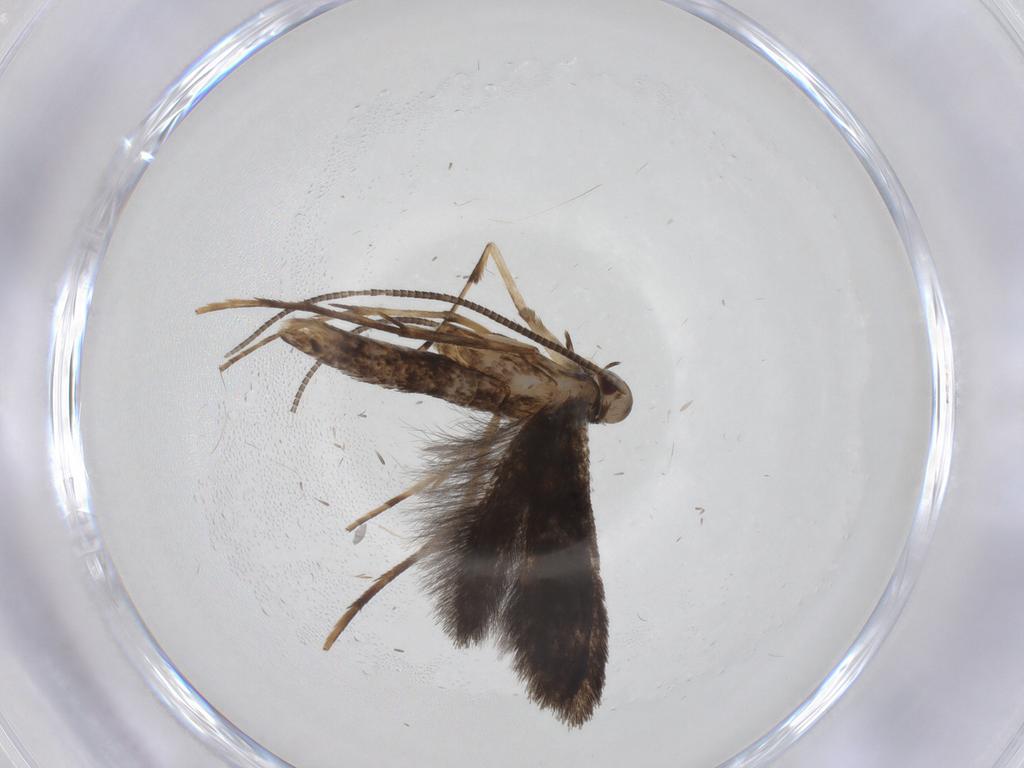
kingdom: Animalia
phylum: Arthropoda
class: Insecta
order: Lepidoptera
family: Gracillariidae
